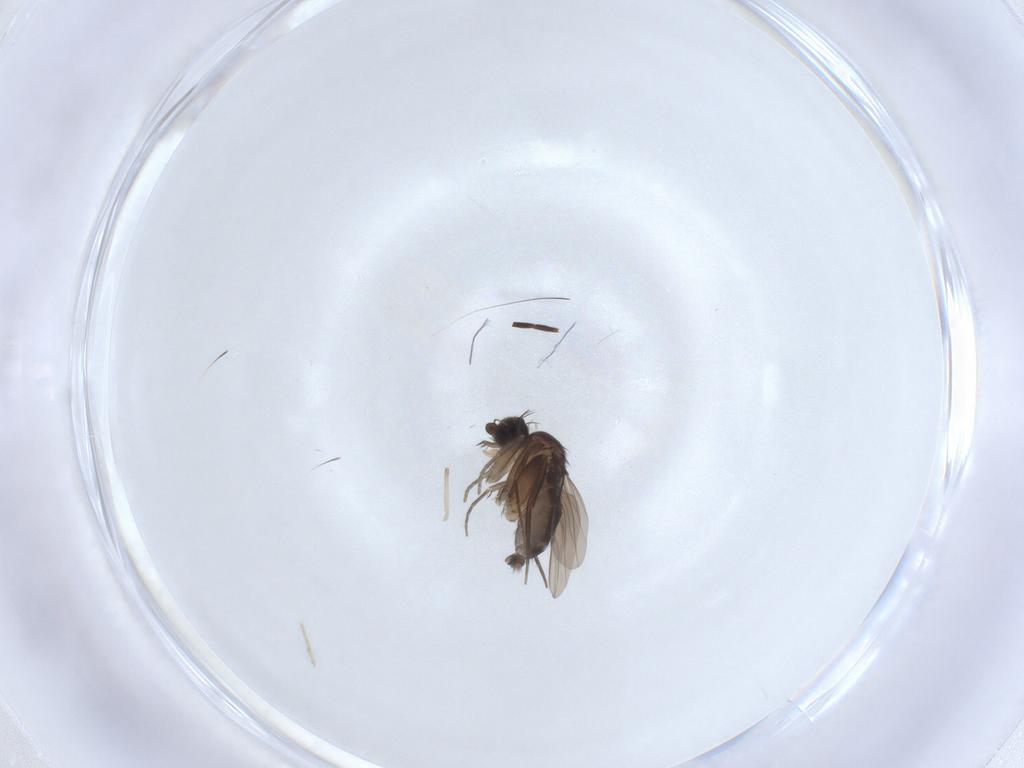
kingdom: Animalia
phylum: Arthropoda
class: Insecta
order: Diptera
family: Phoridae
